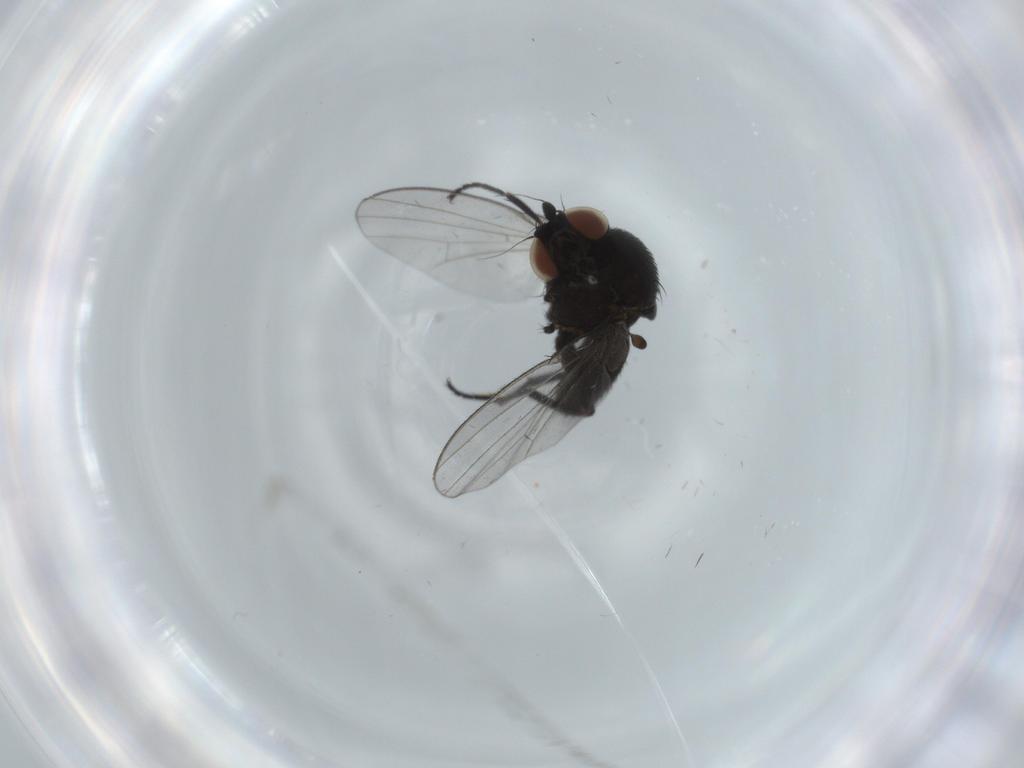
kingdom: Animalia
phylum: Arthropoda
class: Insecta
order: Diptera
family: Milichiidae
